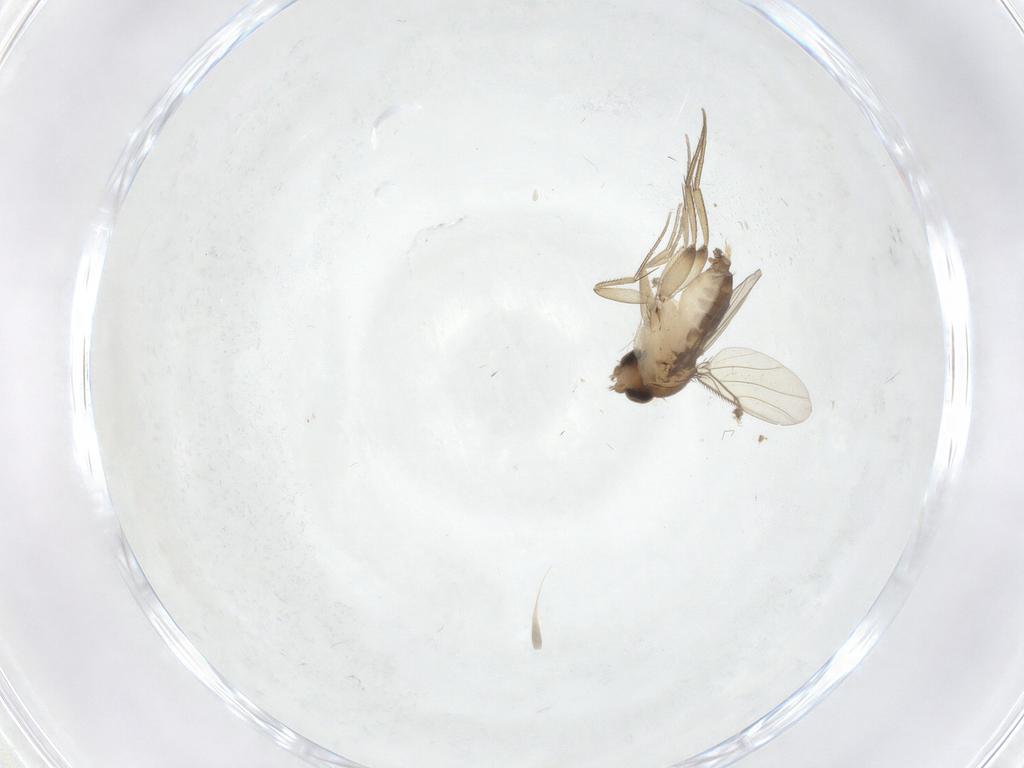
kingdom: Animalia
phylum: Arthropoda
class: Insecta
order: Diptera
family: Phoridae
